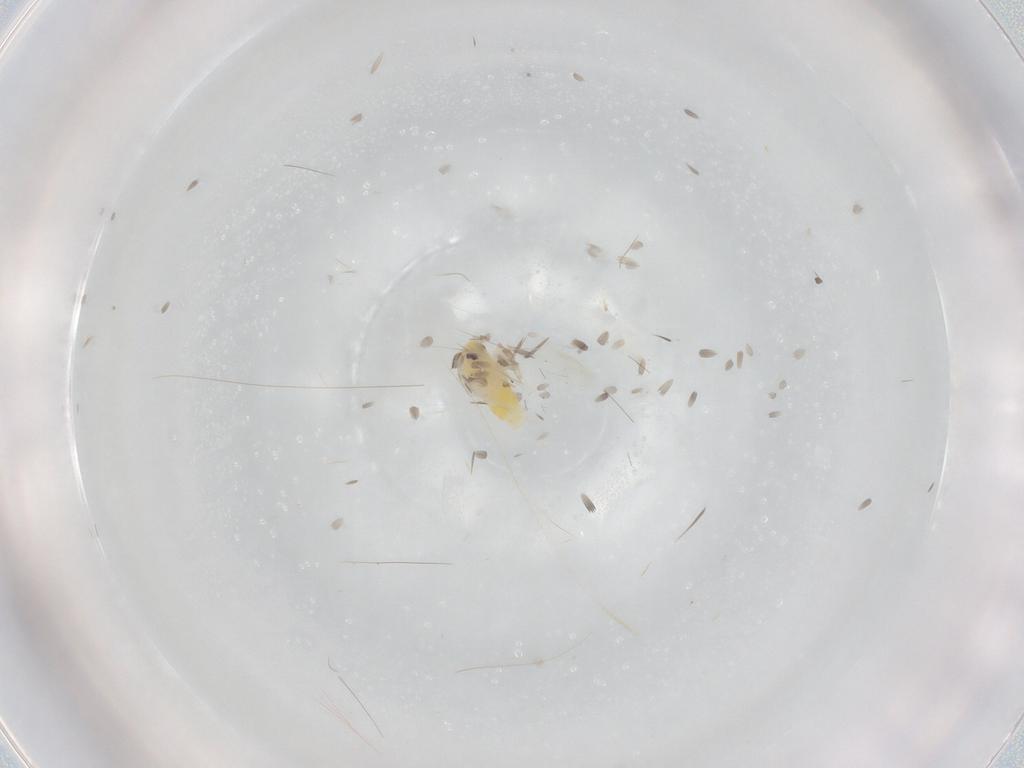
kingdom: Animalia
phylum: Arthropoda
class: Insecta
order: Hemiptera
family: Aleyrodidae
